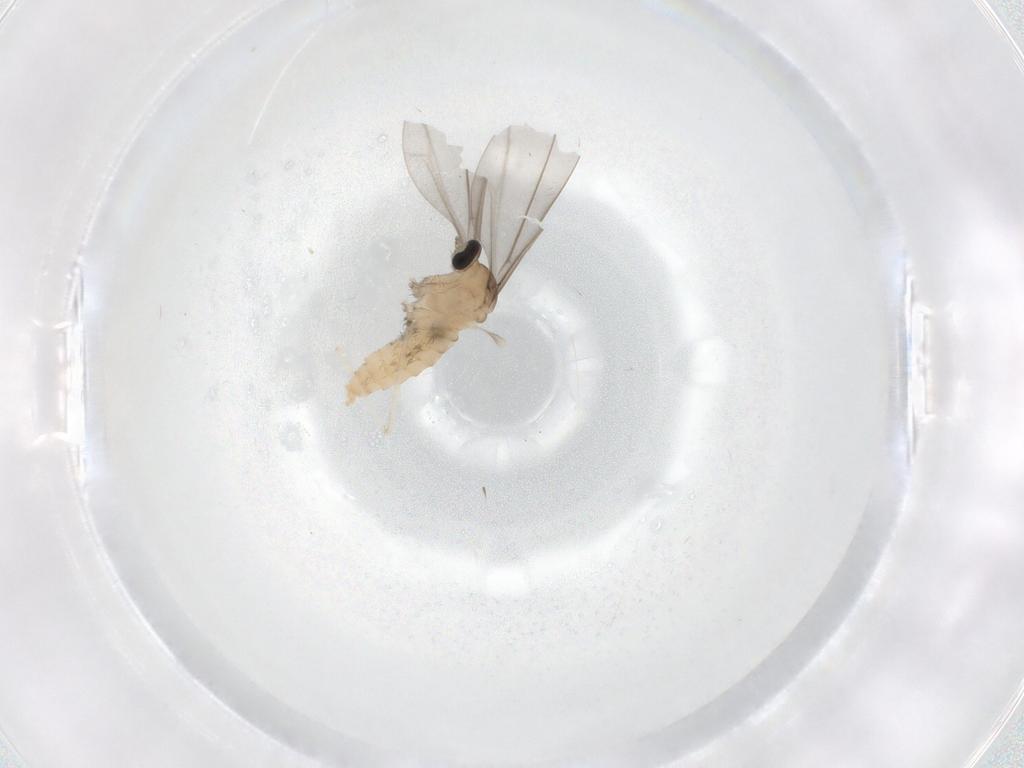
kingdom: Animalia
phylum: Arthropoda
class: Insecta
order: Diptera
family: Cecidomyiidae
